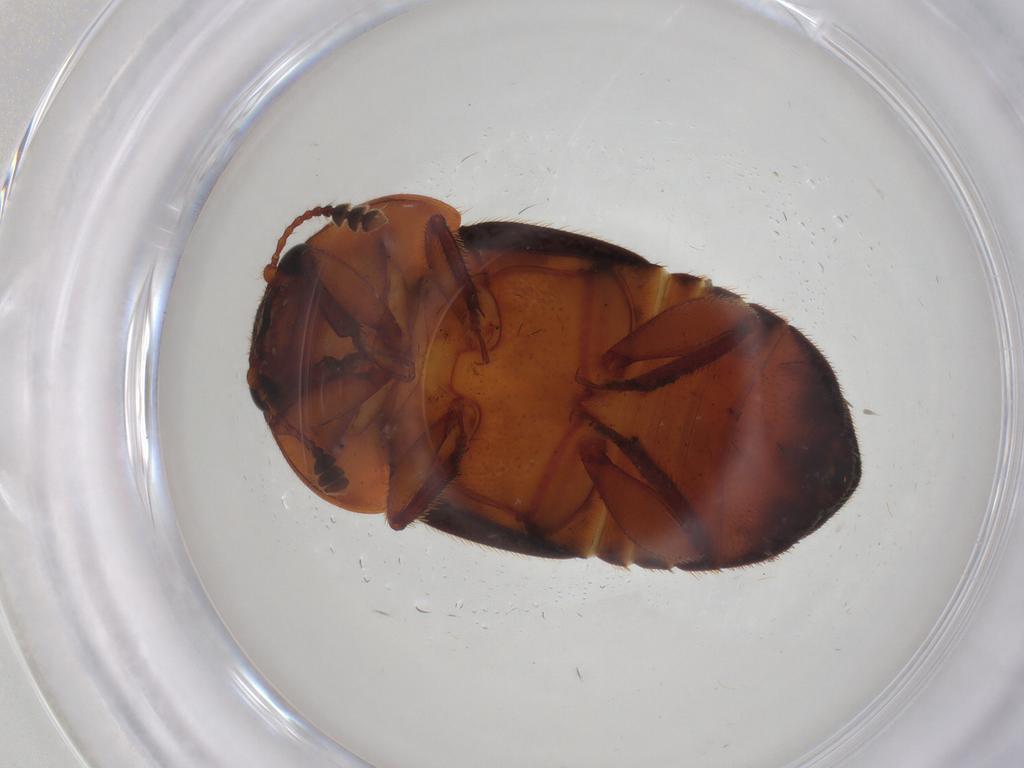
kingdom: Animalia
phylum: Arthropoda
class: Insecta
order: Coleoptera
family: Nitidulidae
